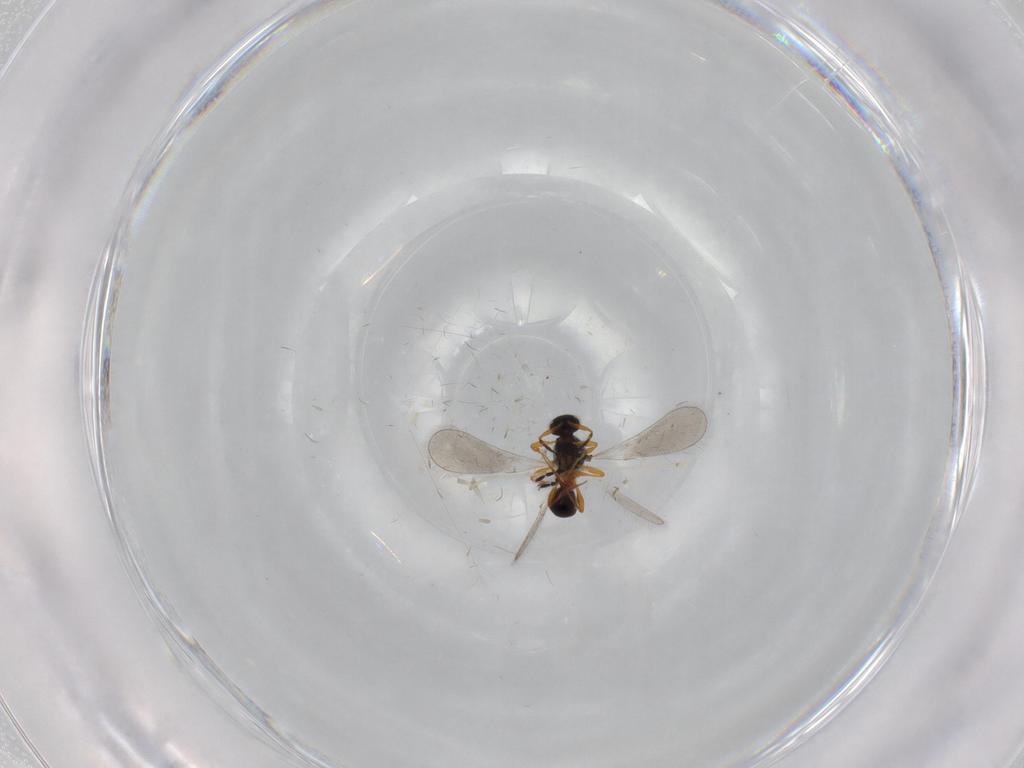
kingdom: Animalia
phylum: Arthropoda
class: Insecta
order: Hymenoptera
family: Platygastridae
